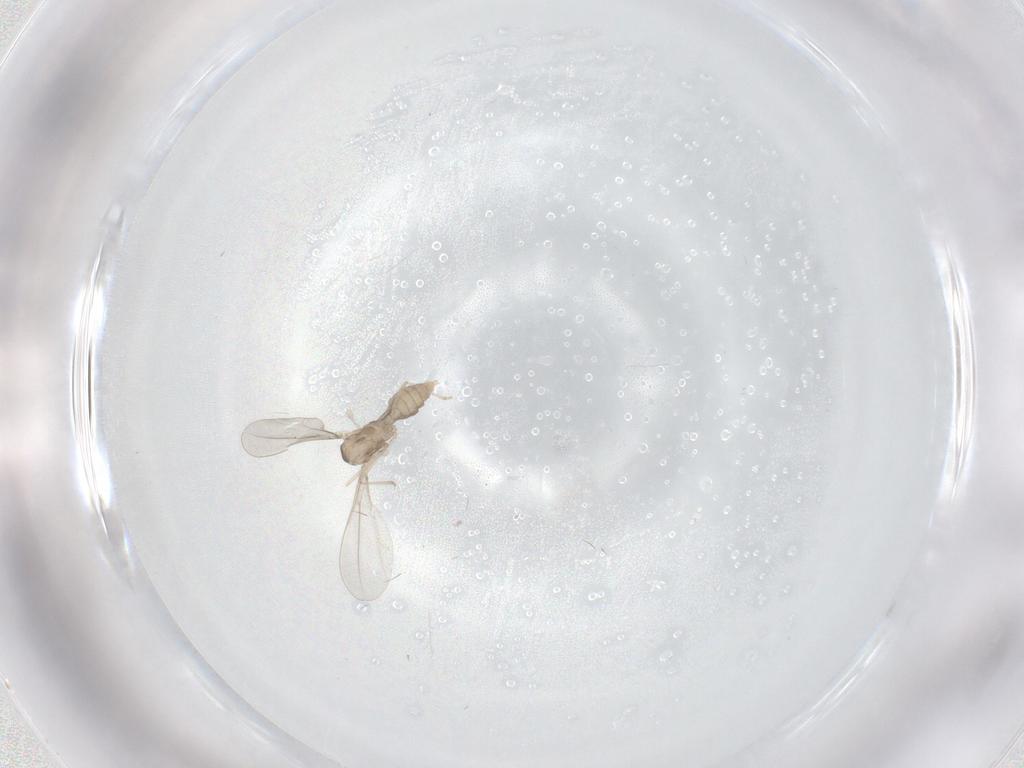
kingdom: Animalia
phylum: Arthropoda
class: Insecta
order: Diptera
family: Cecidomyiidae
